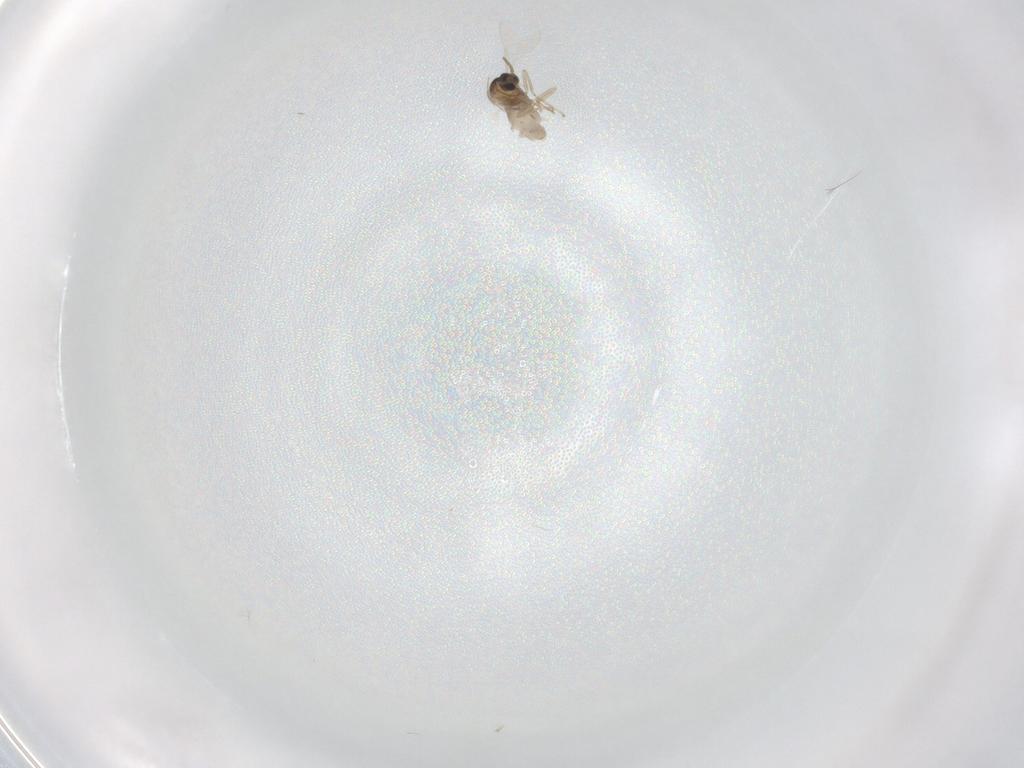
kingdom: Animalia
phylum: Arthropoda
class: Insecta
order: Diptera
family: Cecidomyiidae
